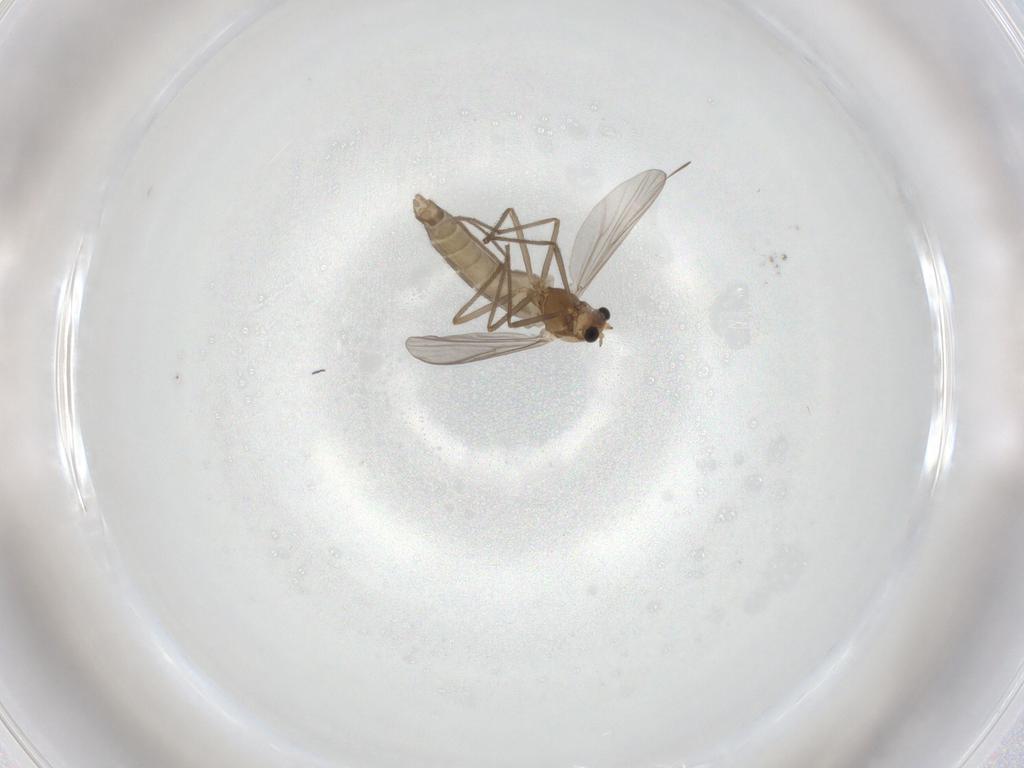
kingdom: Animalia
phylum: Arthropoda
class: Insecta
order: Diptera
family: Chironomidae
